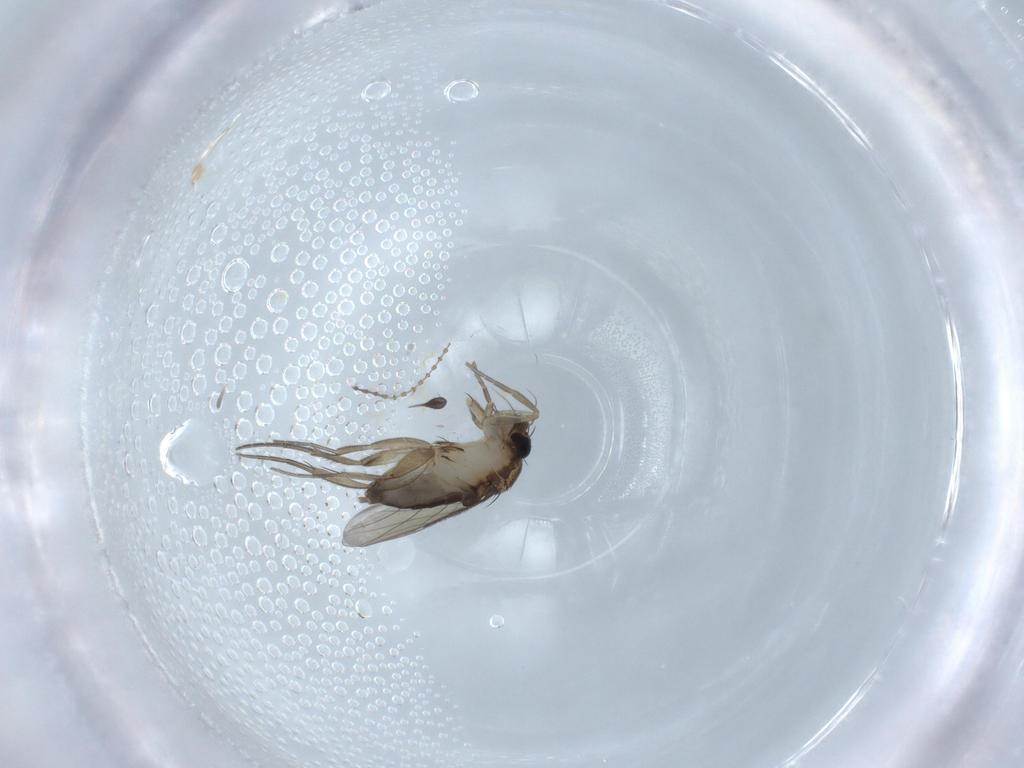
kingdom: Animalia
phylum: Arthropoda
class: Insecta
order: Diptera
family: Phoridae
